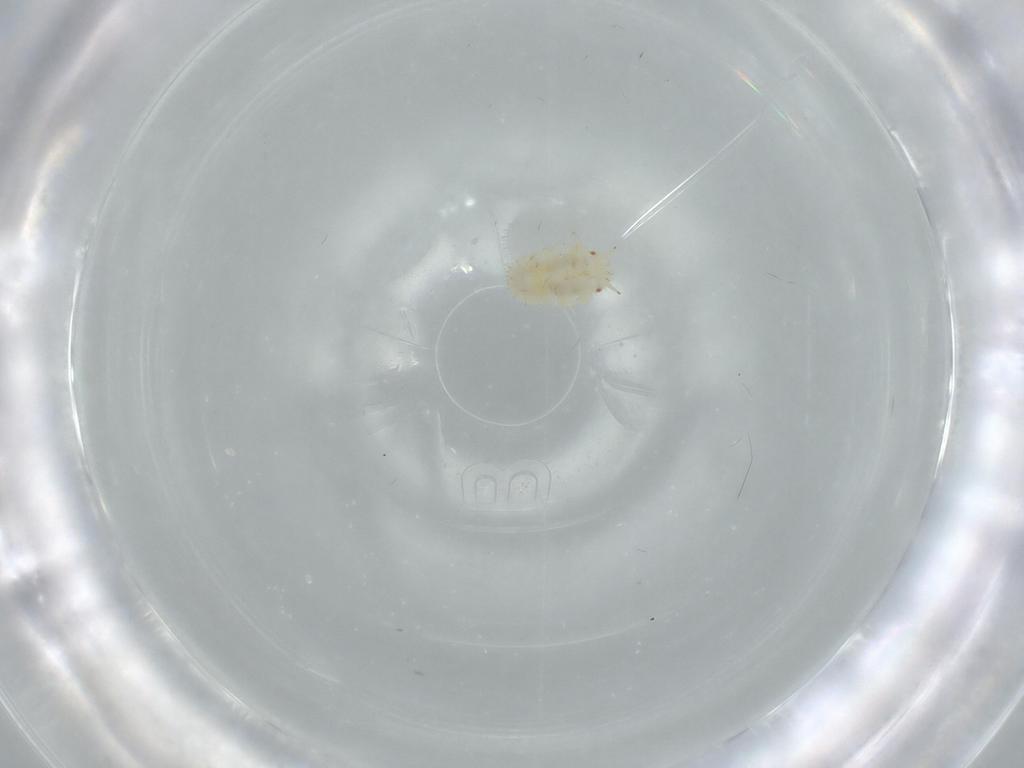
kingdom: Animalia
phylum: Arthropoda
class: Insecta
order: Hemiptera
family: Triozidae
